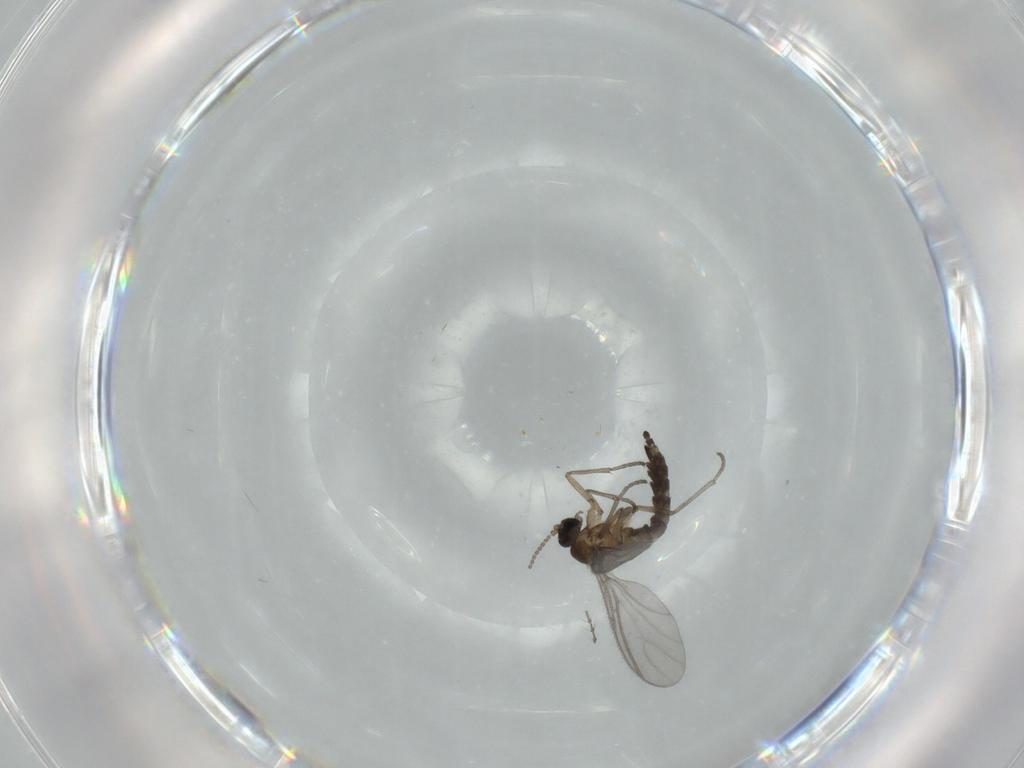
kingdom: Animalia
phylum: Arthropoda
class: Insecta
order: Diptera
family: Sciaridae
